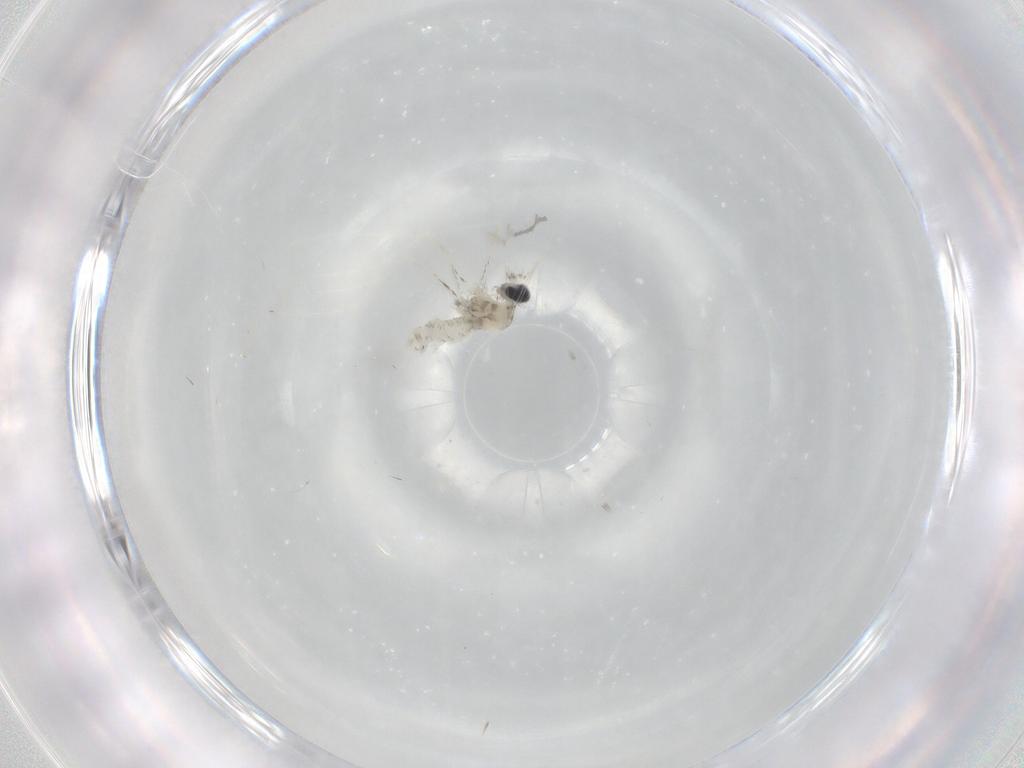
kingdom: Animalia
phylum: Arthropoda
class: Insecta
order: Diptera
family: Cecidomyiidae
